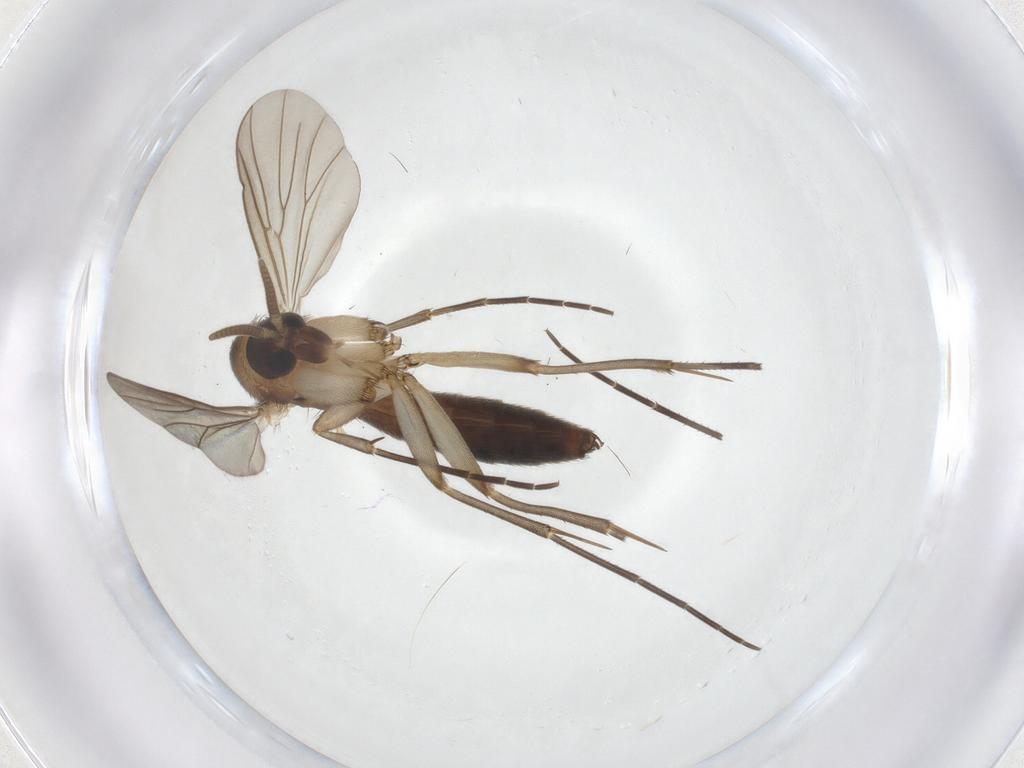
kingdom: Animalia
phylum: Arthropoda
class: Insecta
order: Diptera
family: Mycetophilidae
